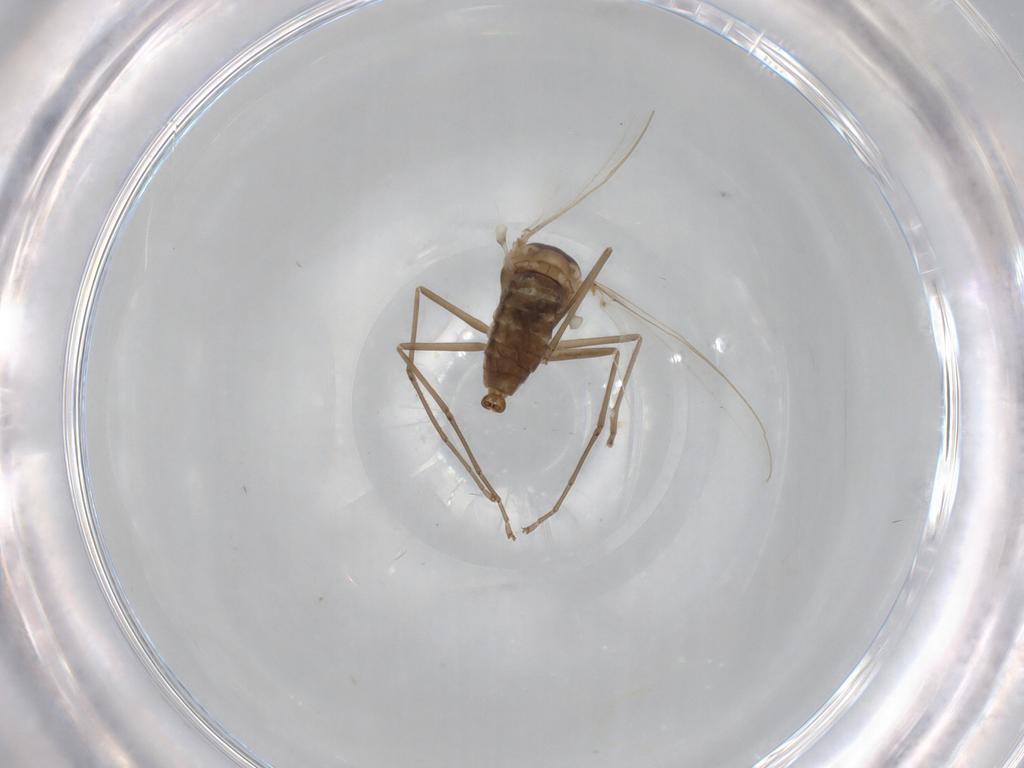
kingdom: Animalia
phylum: Arthropoda
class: Insecta
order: Diptera
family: Cecidomyiidae
